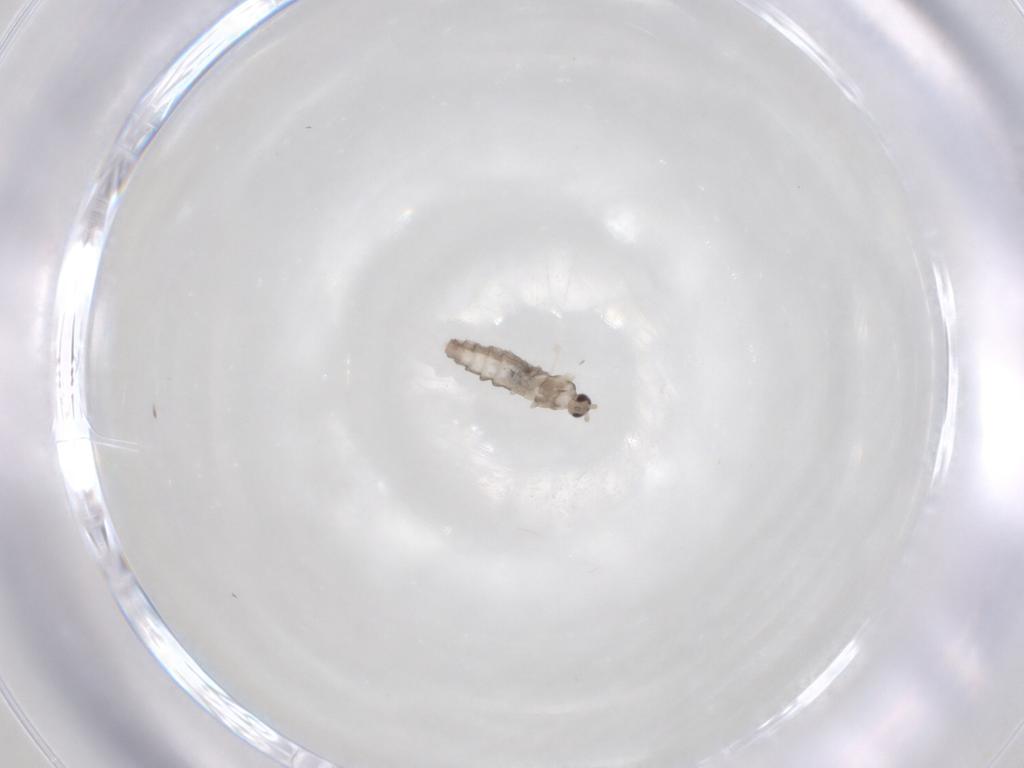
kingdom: Animalia
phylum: Arthropoda
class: Insecta
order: Diptera
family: Cecidomyiidae
